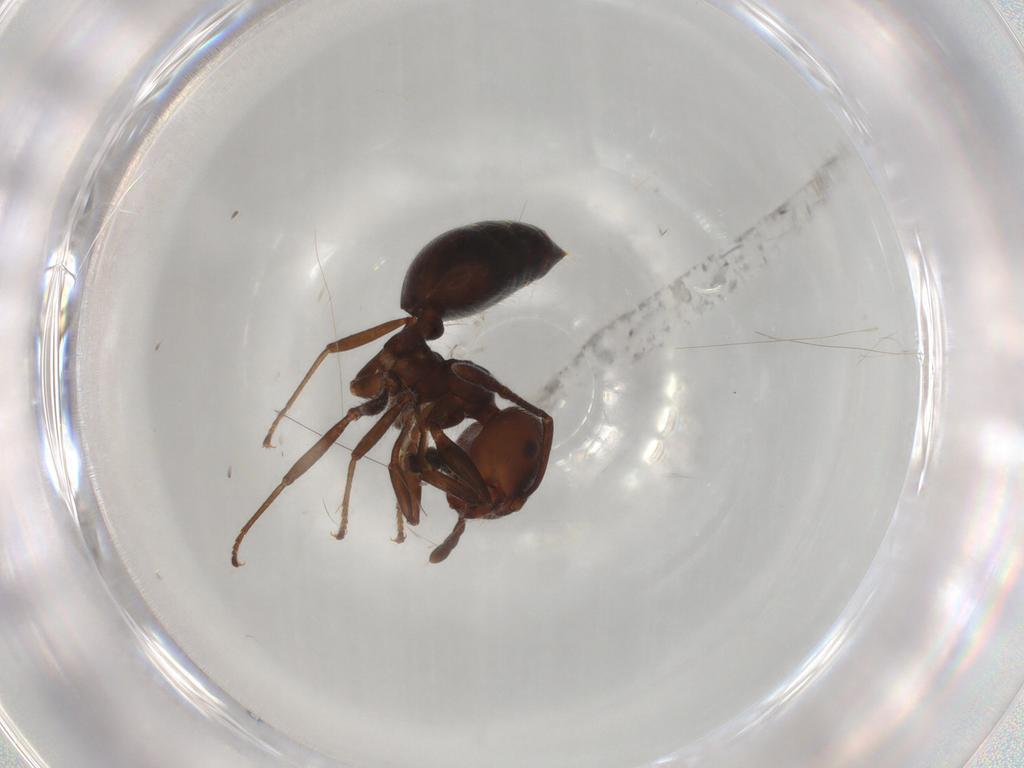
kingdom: Animalia
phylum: Arthropoda
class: Insecta
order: Hymenoptera
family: Formicidae
